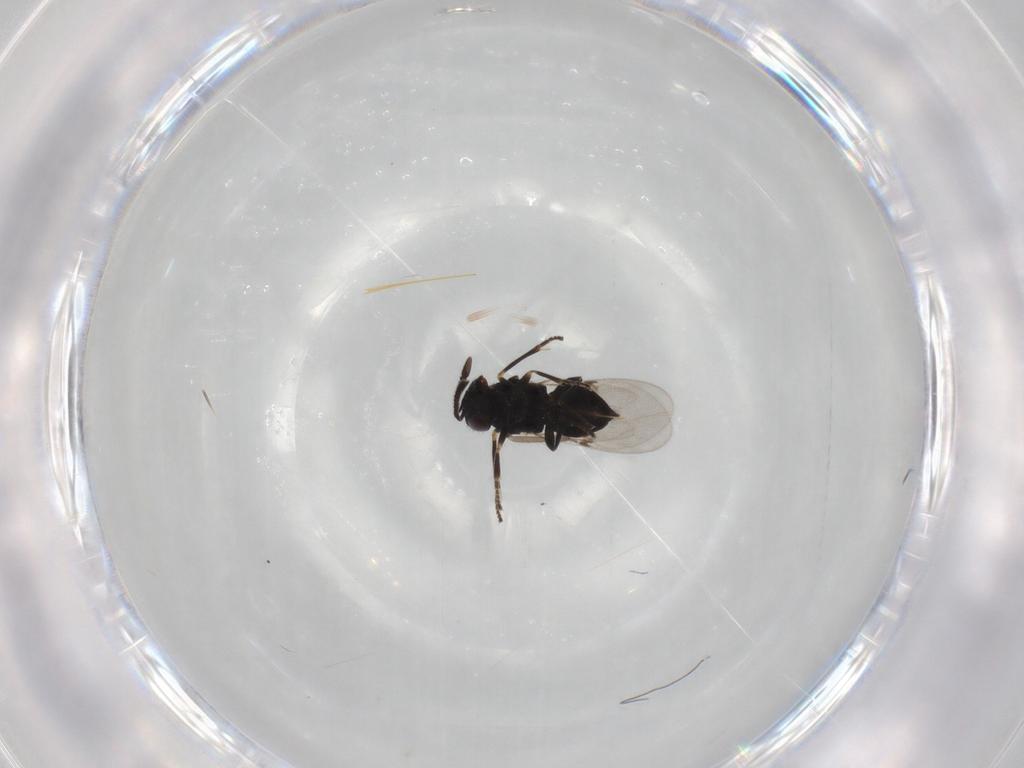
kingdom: Animalia
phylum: Arthropoda
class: Insecta
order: Hymenoptera
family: Encyrtidae
